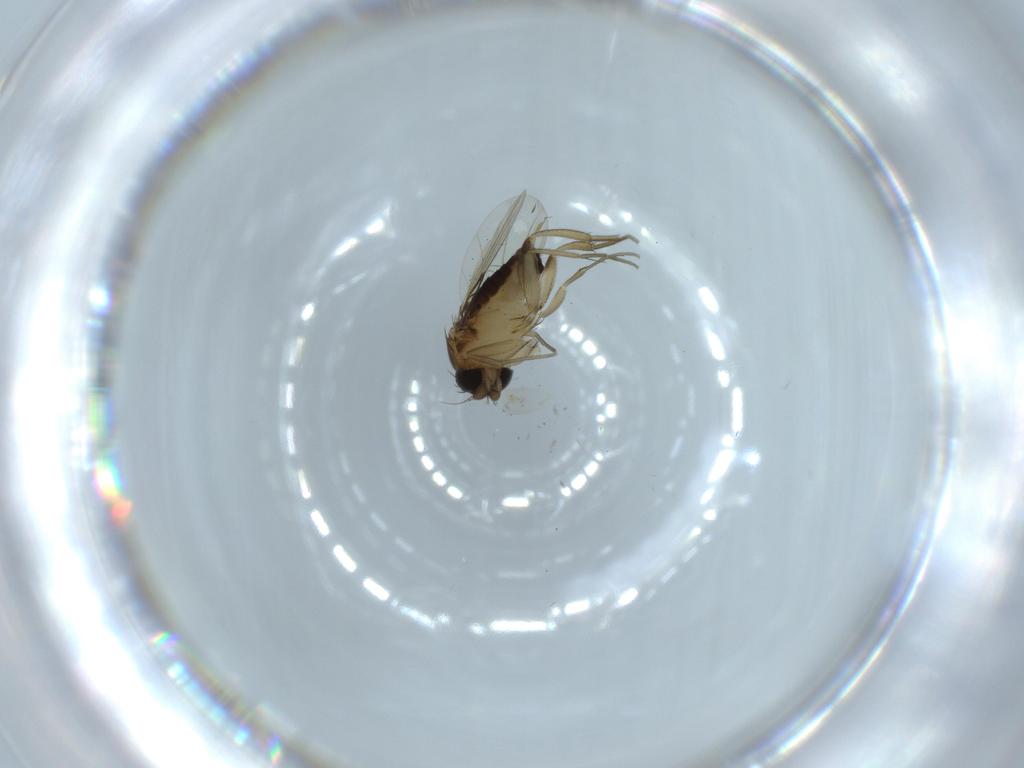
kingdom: Animalia
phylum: Arthropoda
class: Insecta
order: Diptera
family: Phoridae
